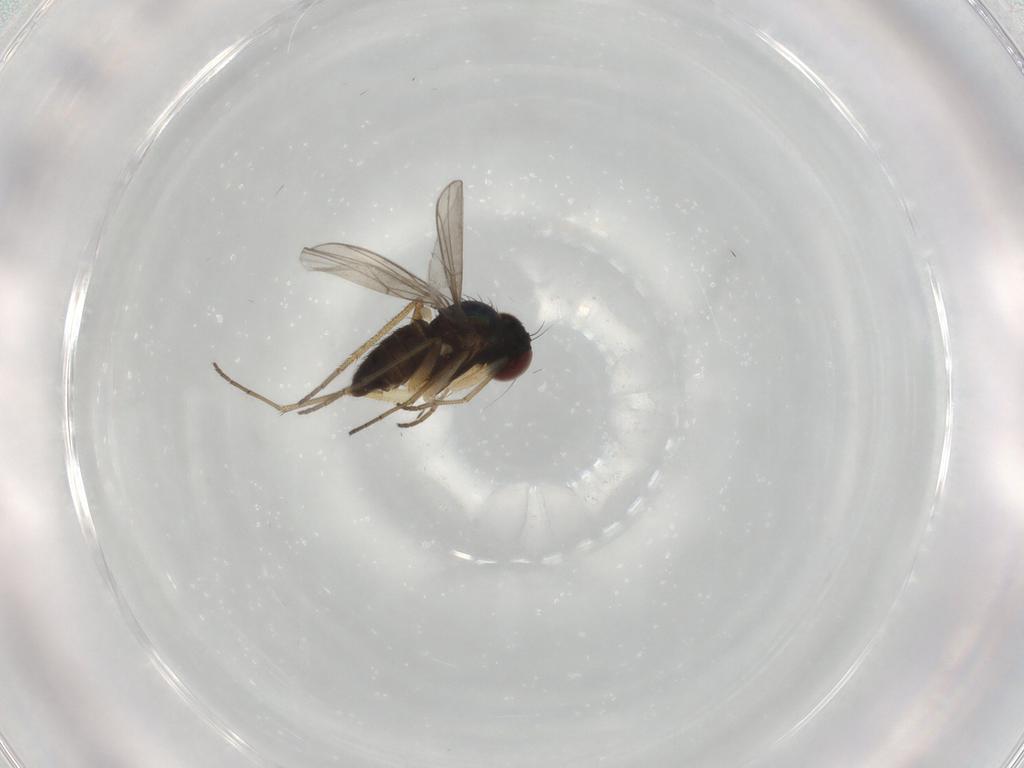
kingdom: Animalia
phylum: Arthropoda
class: Insecta
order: Diptera
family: Dolichopodidae
